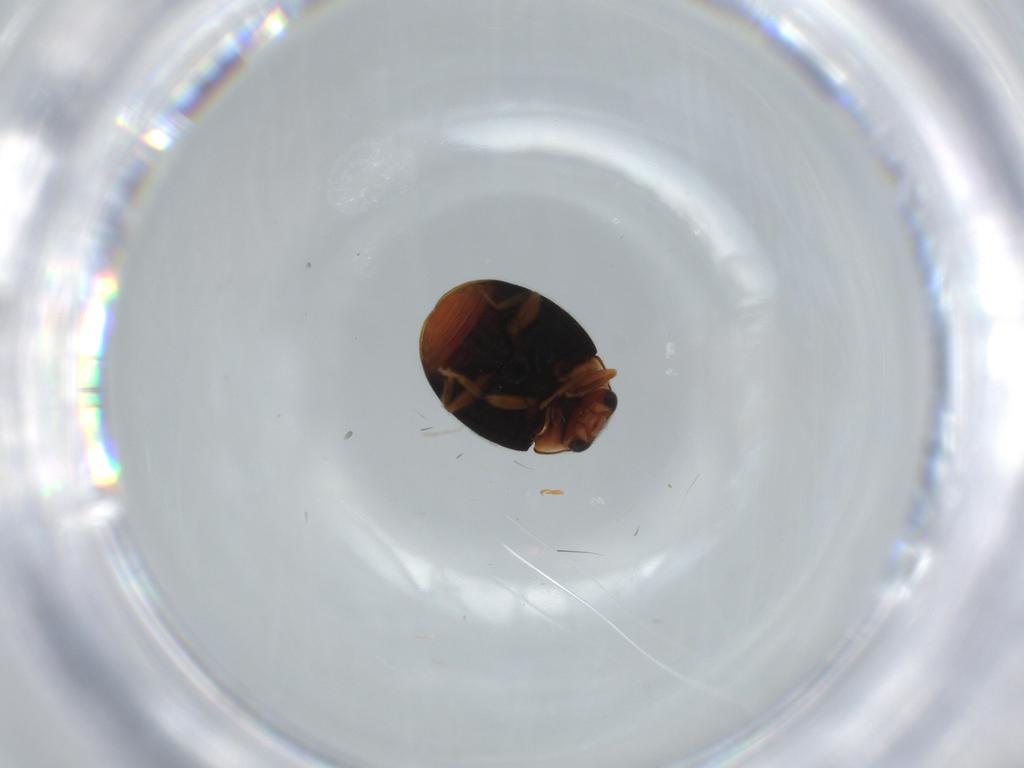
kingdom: Animalia
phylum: Arthropoda
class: Insecta
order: Coleoptera
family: Coccinellidae
